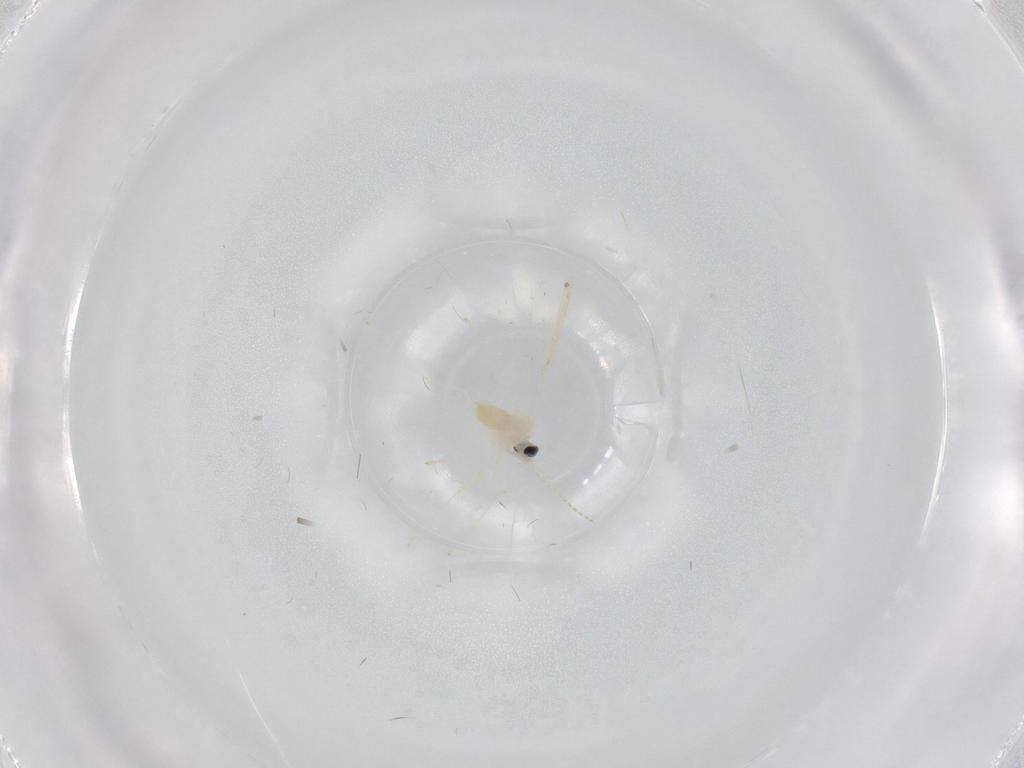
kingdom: Animalia
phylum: Arthropoda
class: Insecta
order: Diptera
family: Cecidomyiidae
